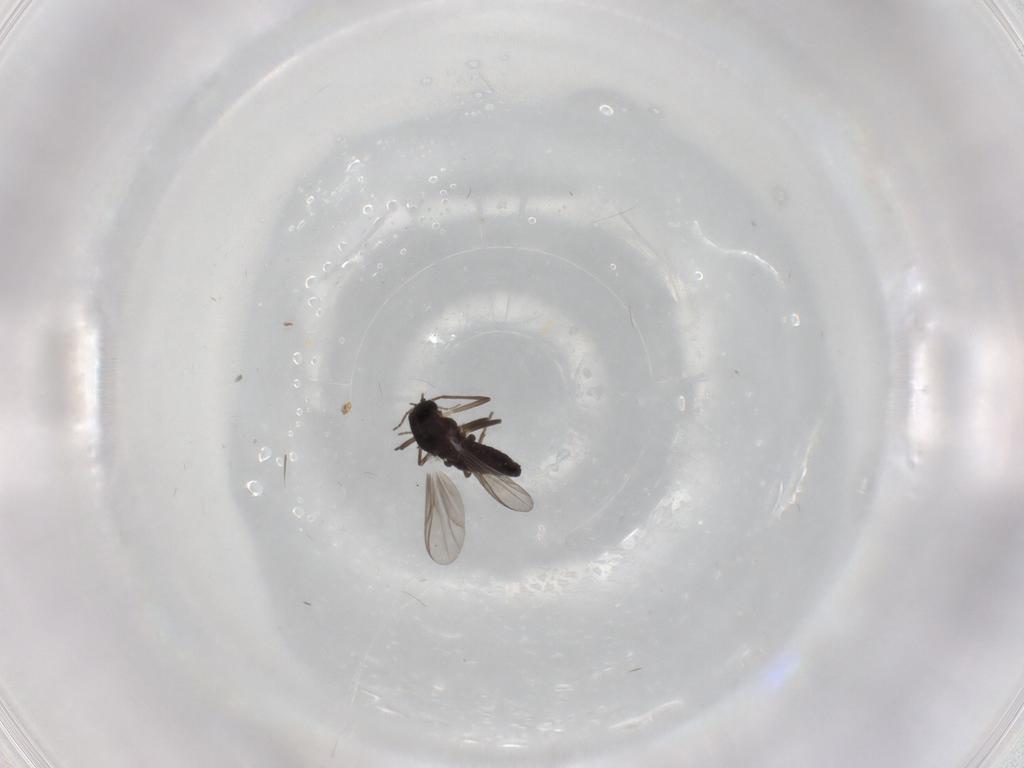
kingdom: Animalia
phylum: Arthropoda
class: Insecta
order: Diptera
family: Chironomidae
